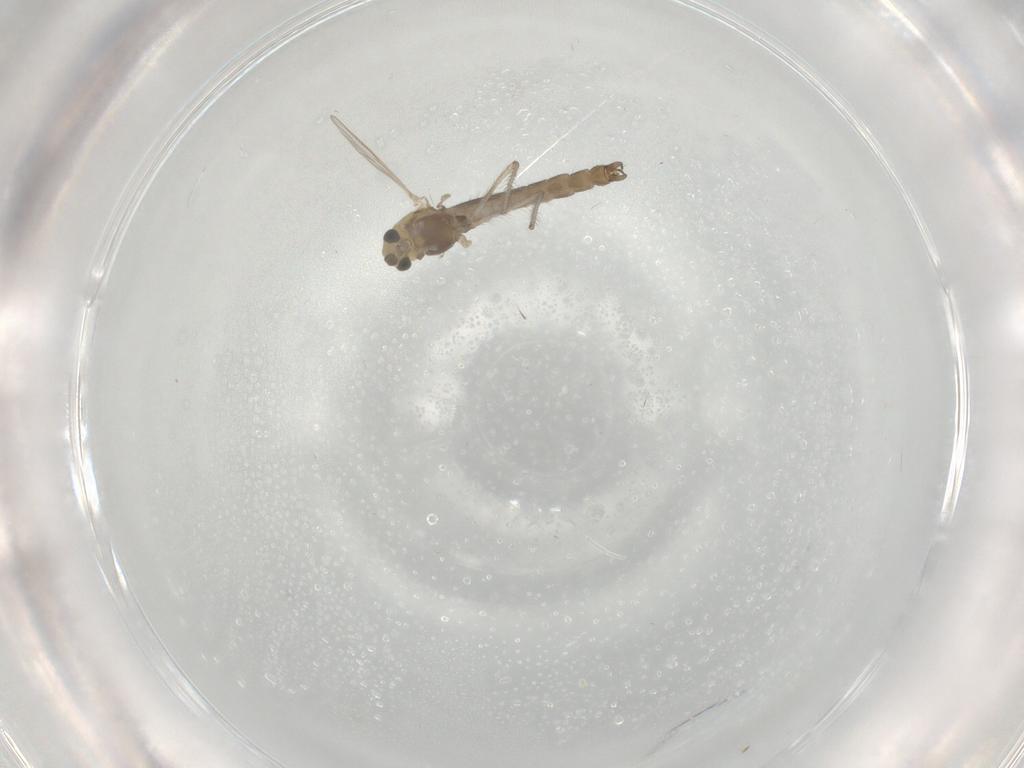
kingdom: Animalia
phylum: Arthropoda
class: Insecta
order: Diptera
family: Chironomidae
